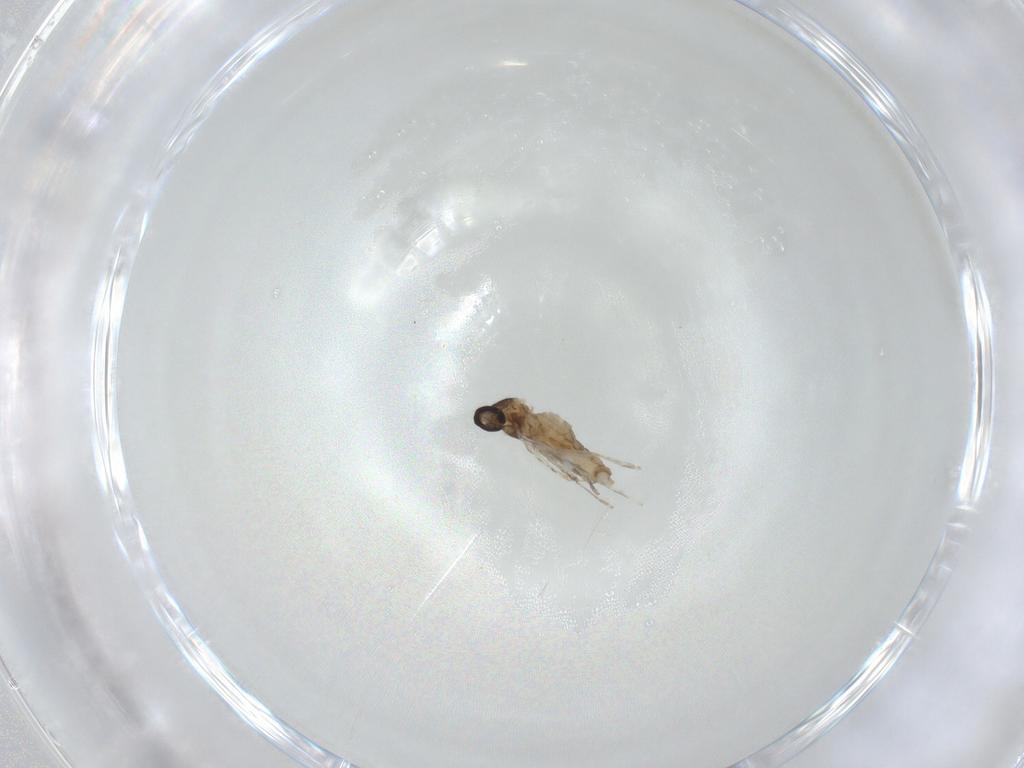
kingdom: Animalia
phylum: Arthropoda
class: Insecta
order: Diptera
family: Cecidomyiidae
